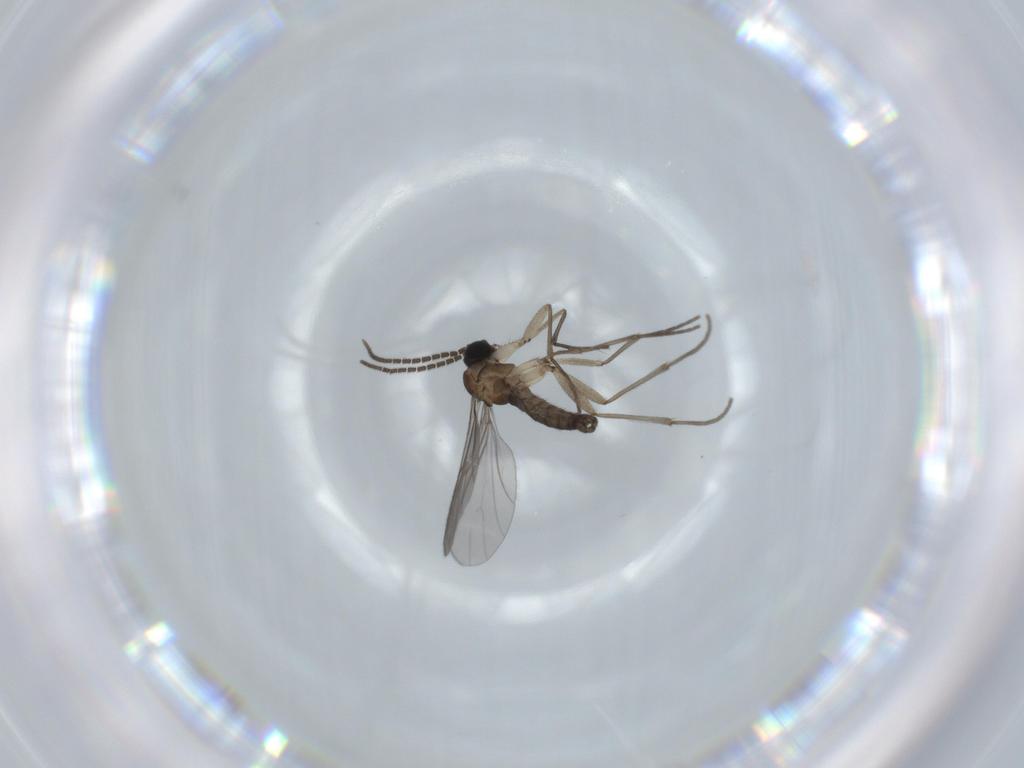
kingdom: Animalia
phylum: Arthropoda
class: Insecta
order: Diptera
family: Sciaridae
